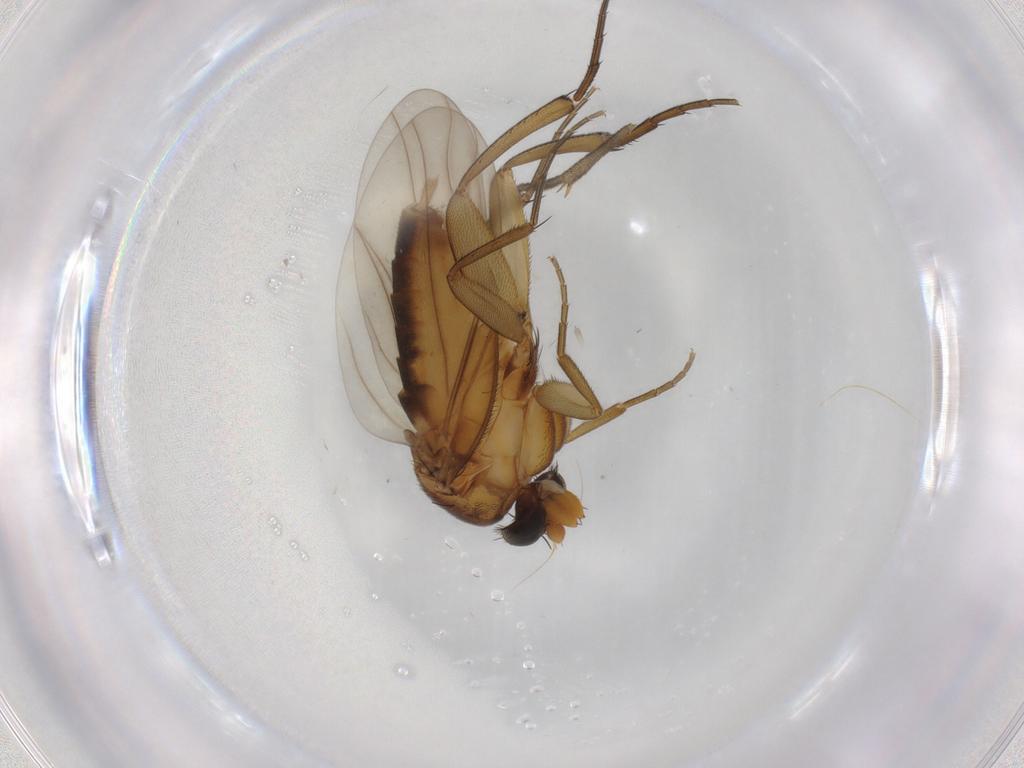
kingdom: Animalia
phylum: Arthropoda
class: Insecta
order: Diptera
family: Phoridae
